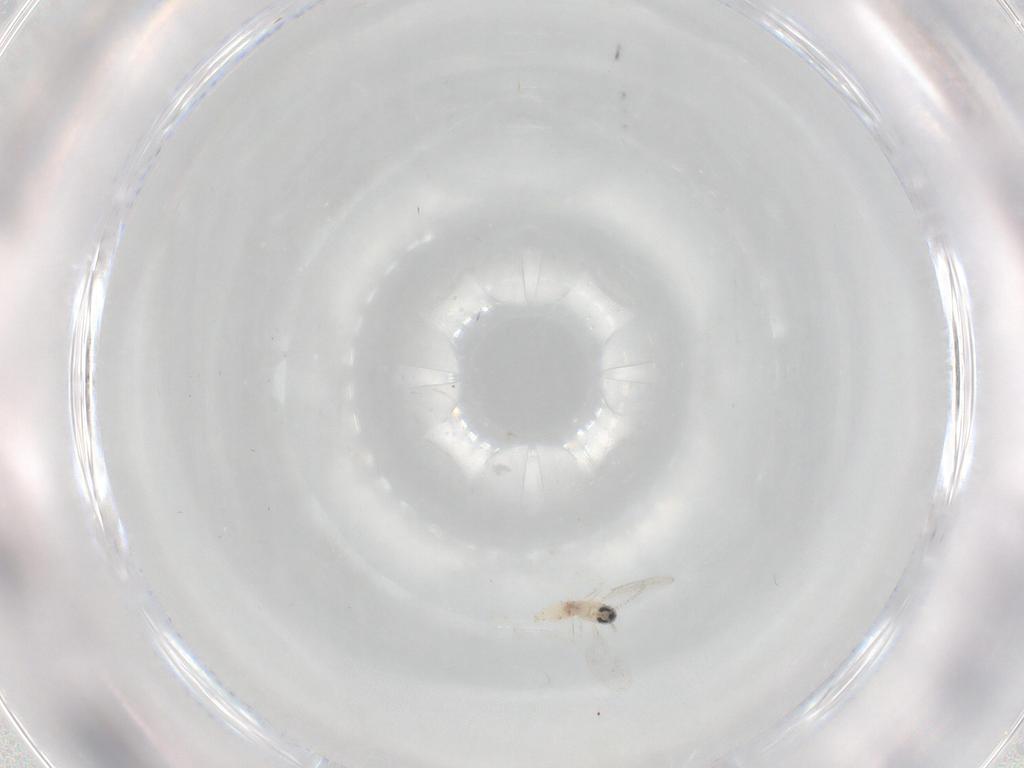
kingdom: Animalia
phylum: Arthropoda
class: Insecta
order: Diptera
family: Cecidomyiidae
